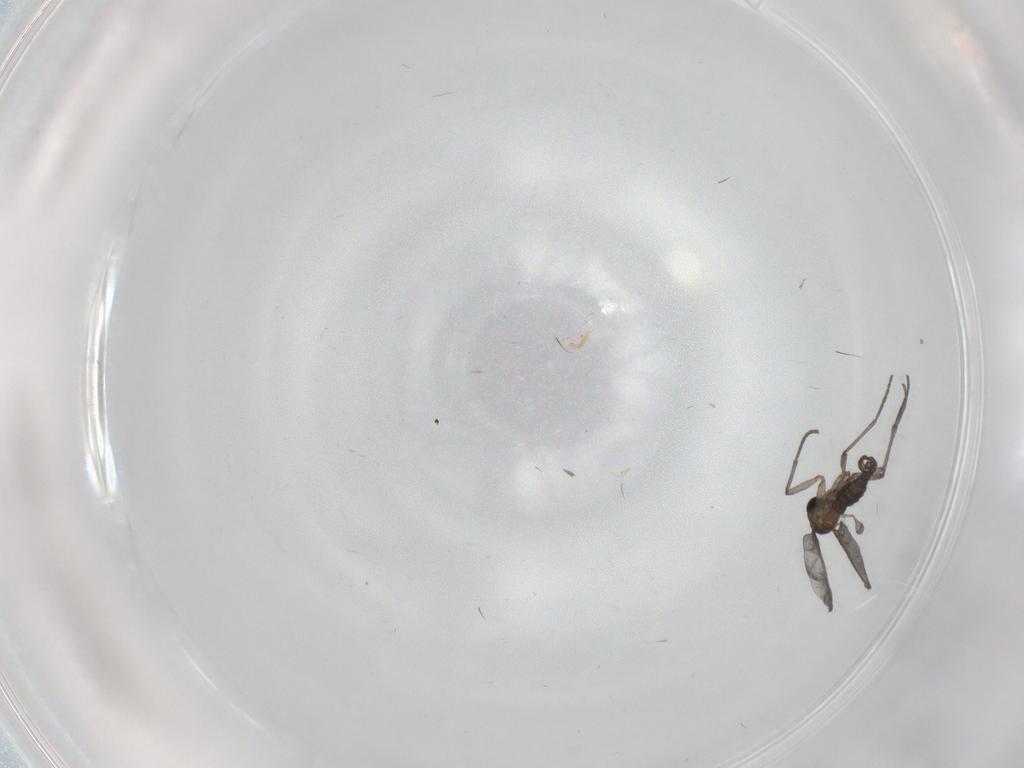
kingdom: Animalia
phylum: Arthropoda
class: Insecta
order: Diptera
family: Sciaridae
